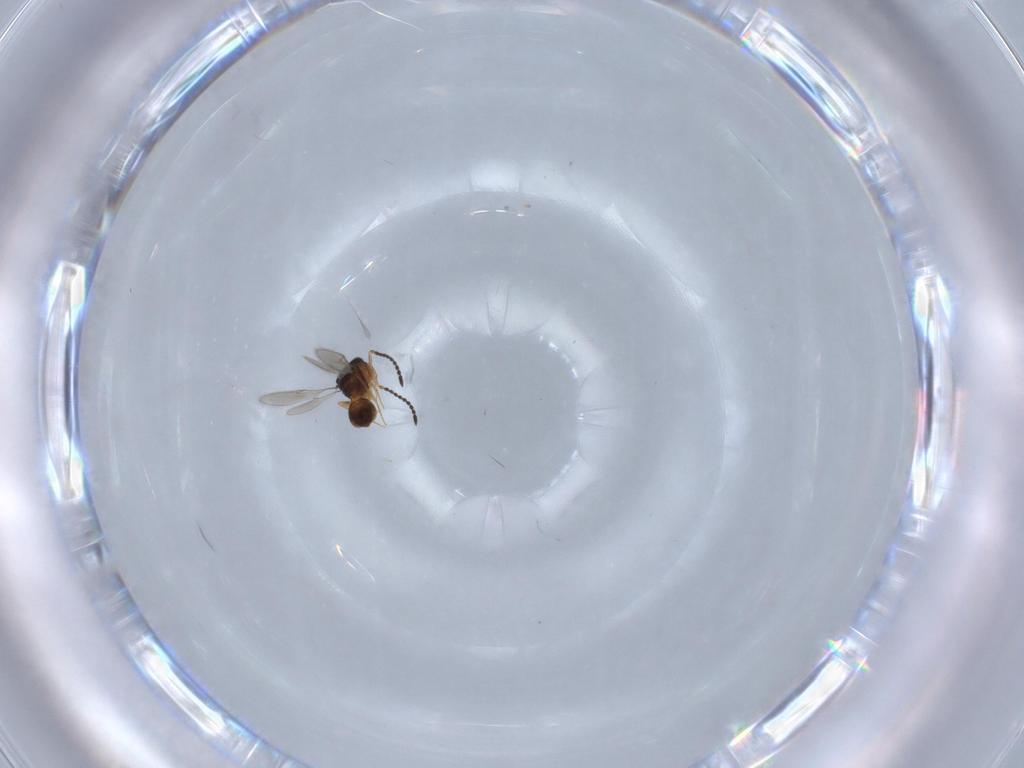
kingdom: Animalia
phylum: Arthropoda
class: Insecta
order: Hymenoptera
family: Scelionidae
